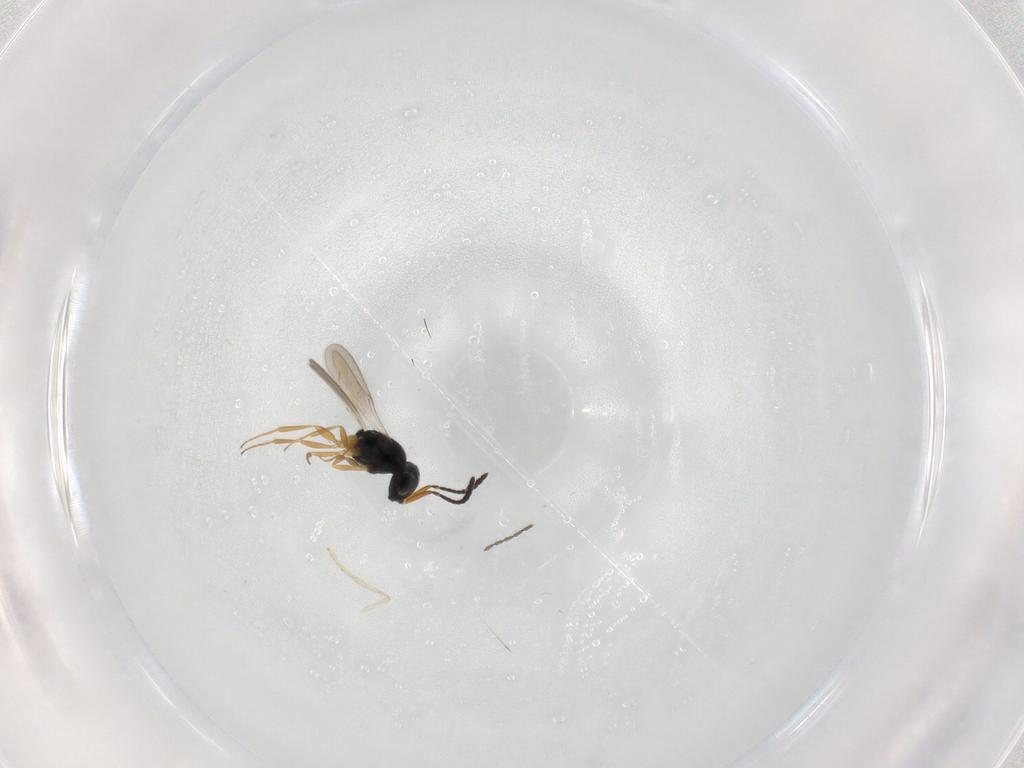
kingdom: Animalia
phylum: Arthropoda
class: Insecta
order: Hymenoptera
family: Scelionidae
